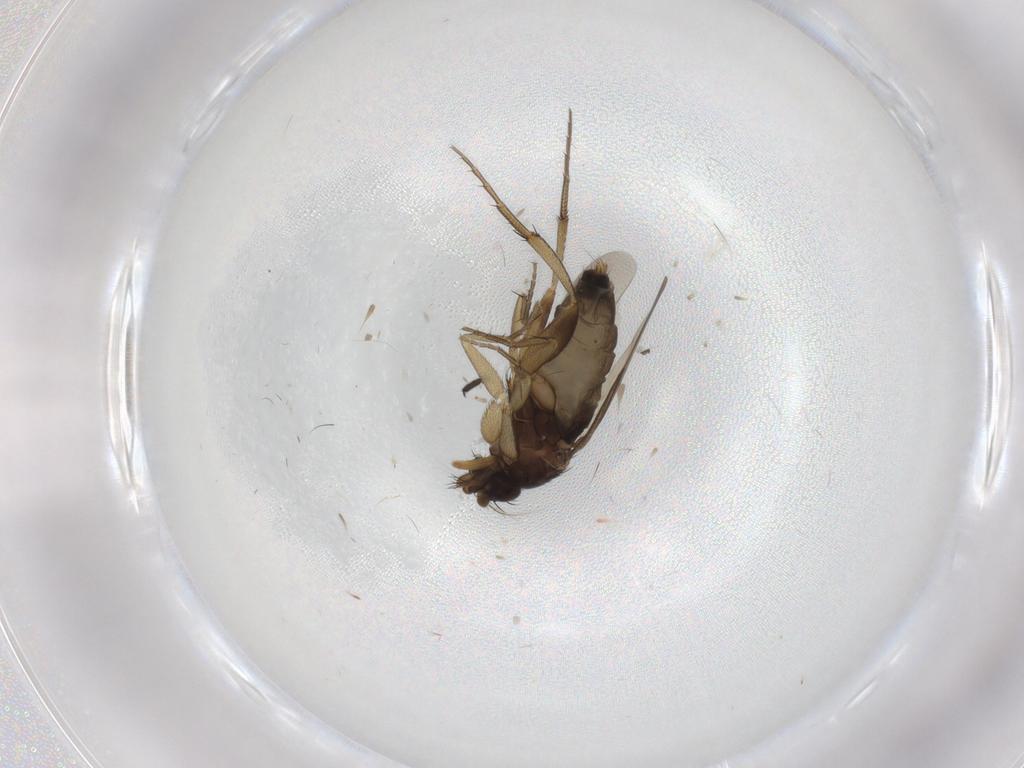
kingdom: Animalia
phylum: Arthropoda
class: Insecta
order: Diptera
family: Phoridae
